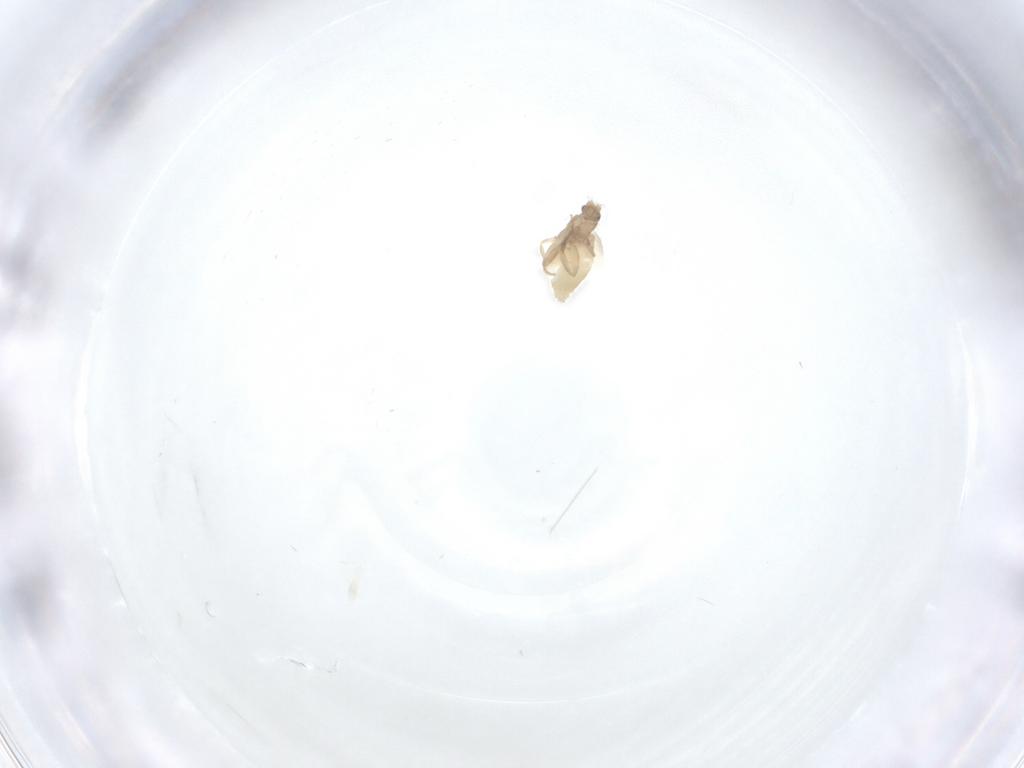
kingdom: Animalia
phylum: Arthropoda
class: Insecta
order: Diptera
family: Phoridae
